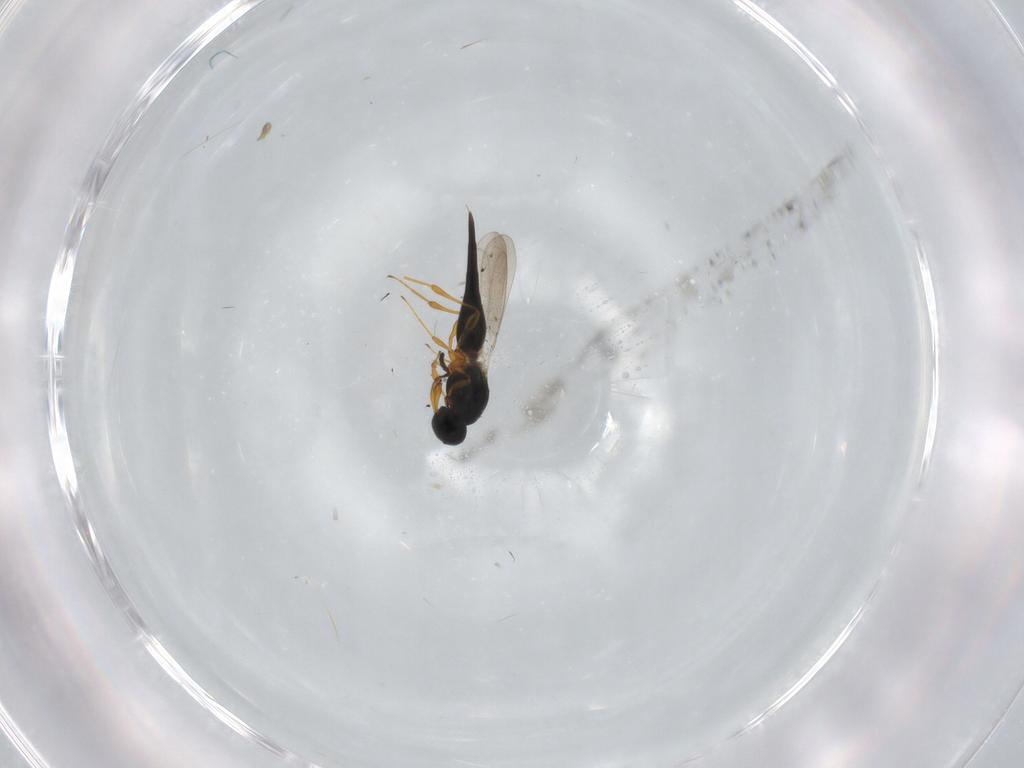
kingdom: Animalia
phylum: Arthropoda
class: Insecta
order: Hymenoptera
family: Platygastridae
